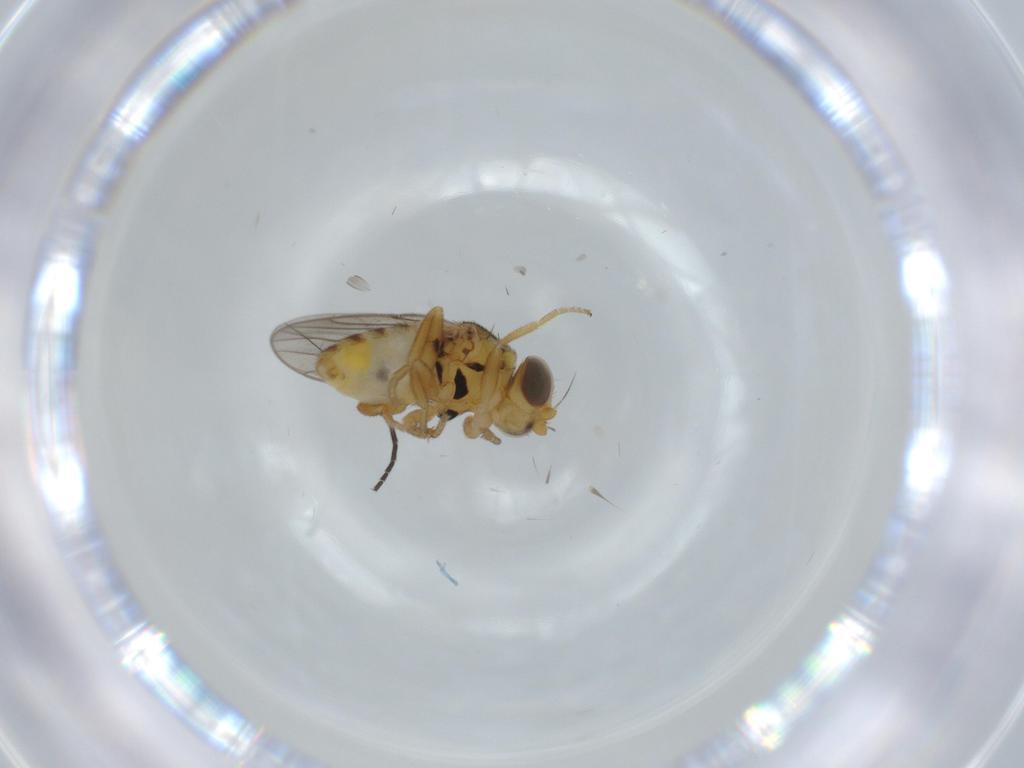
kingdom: Animalia
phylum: Arthropoda
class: Insecta
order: Diptera
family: Chloropidae
